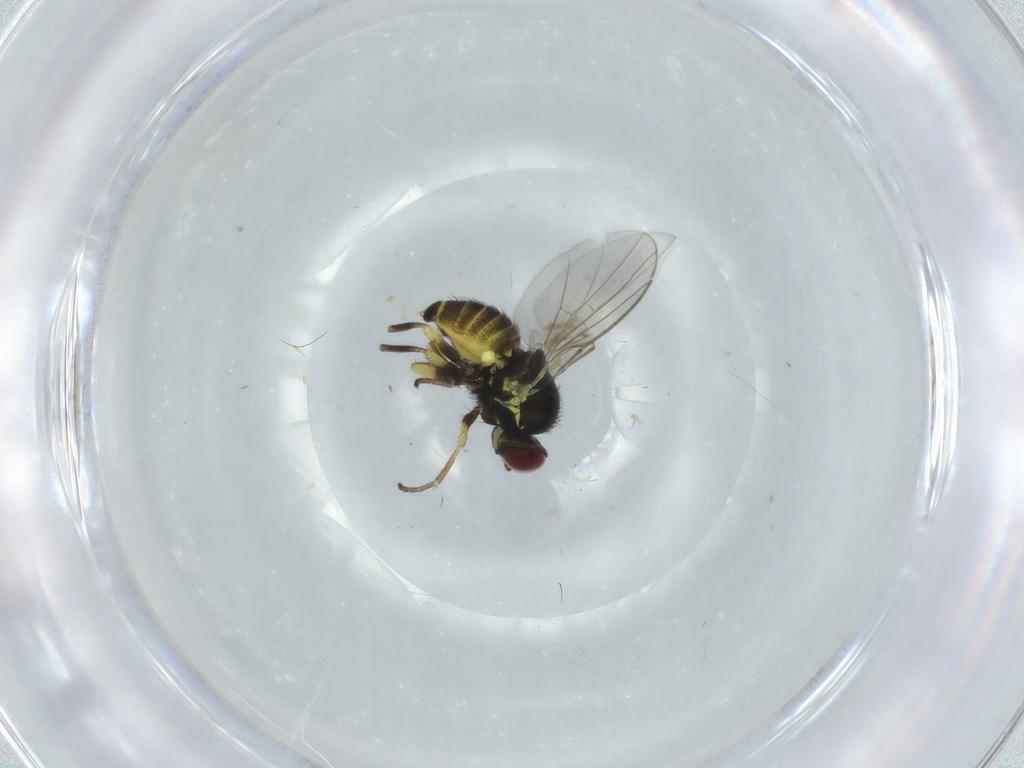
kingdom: Animalia
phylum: Arthropoda
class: Insecta
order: Diptera
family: Agromyzidae
